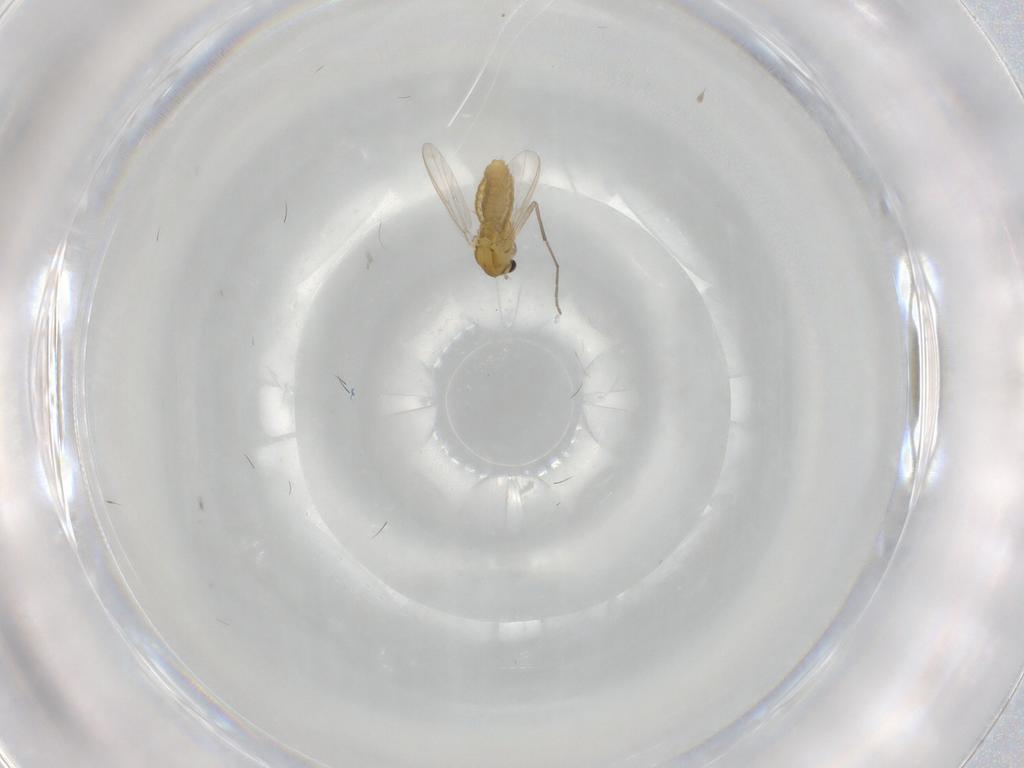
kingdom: Animalia
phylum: Arthropoda
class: Insecta
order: Diptera
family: Chironomidae
